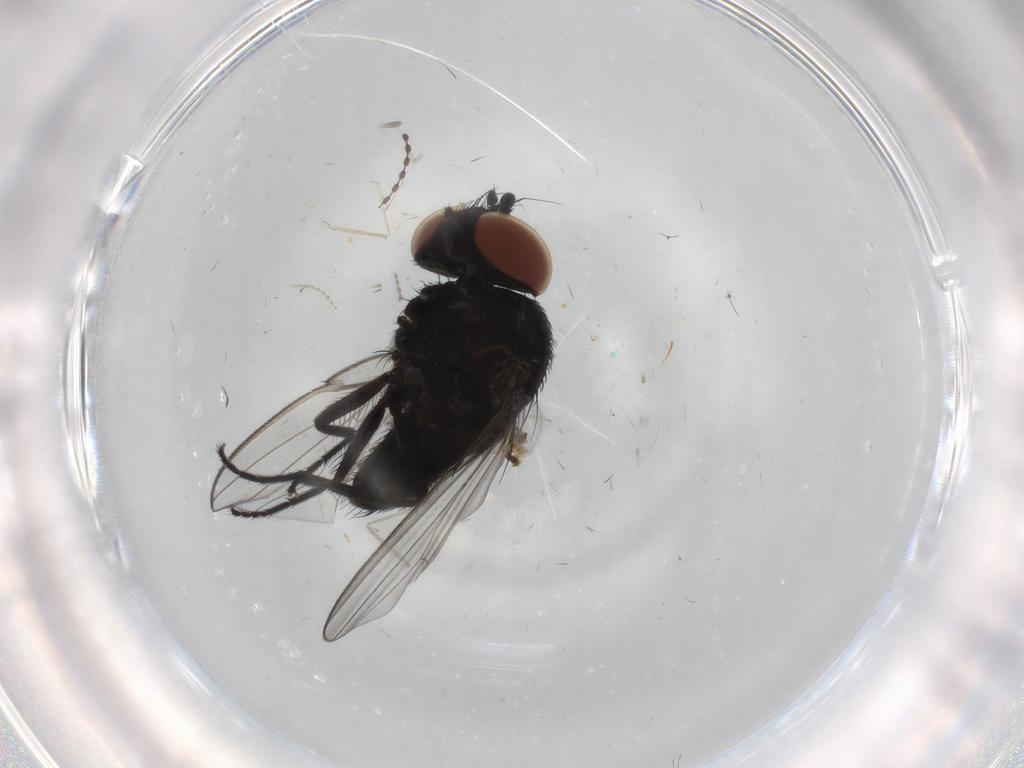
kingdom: Animalia
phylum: Arthropoda
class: Insecta
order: Diptera
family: Milichiidae
